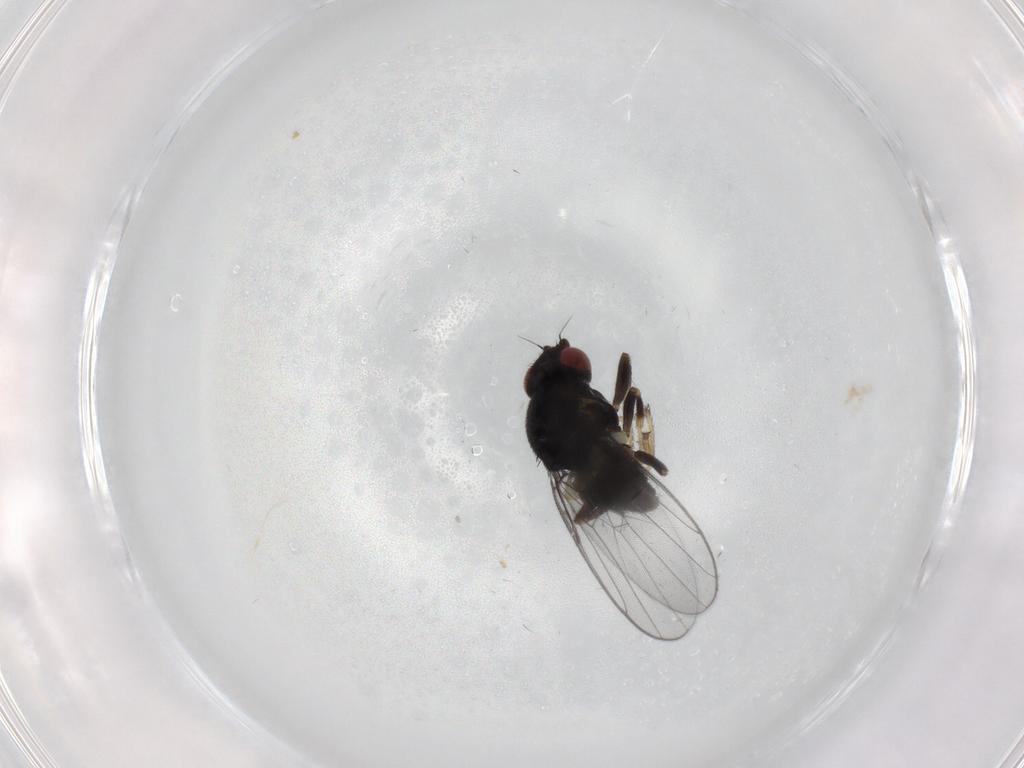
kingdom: Animalia
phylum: Arthropoda
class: Insecta
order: Diptera
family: Chloropidae
